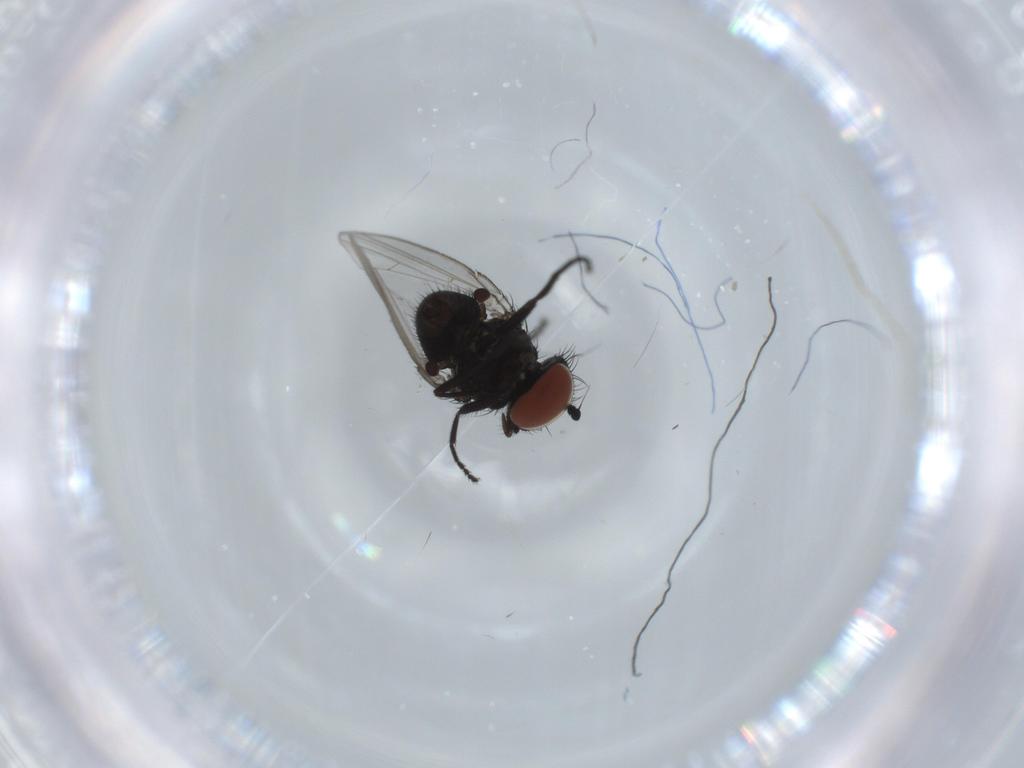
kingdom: Animalia
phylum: Arthropoda
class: Insecta
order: Diptera
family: Milichiidae
